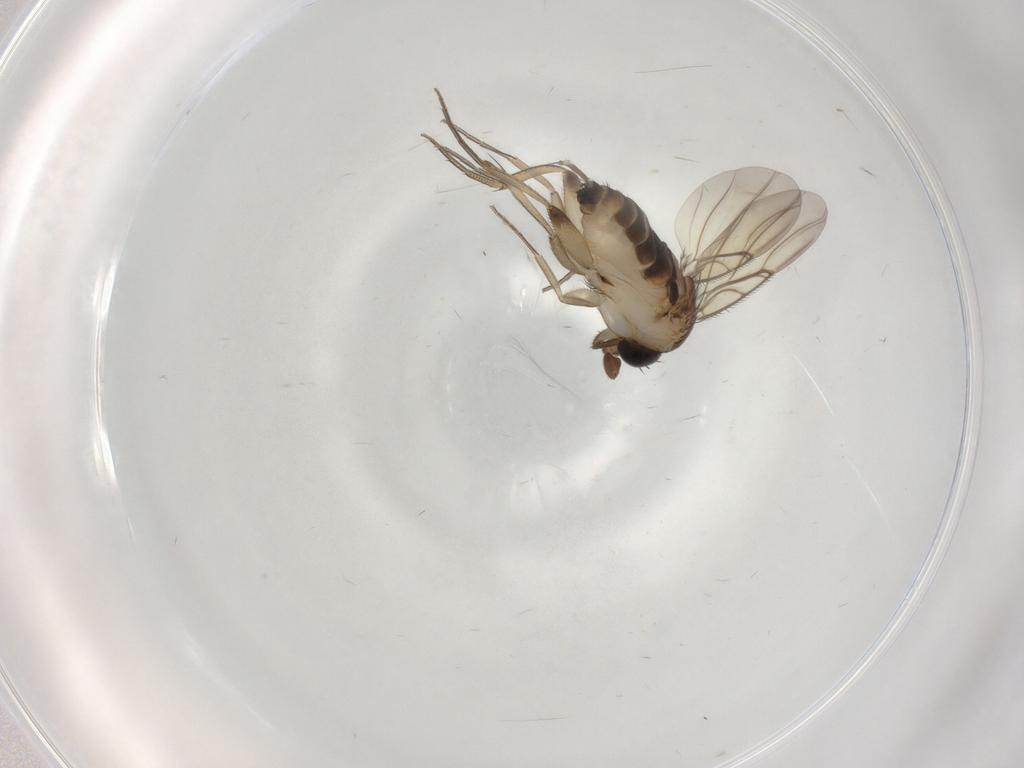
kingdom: Animalia
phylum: Arthropoda
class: Insecta
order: Diptera
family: Phoridae
